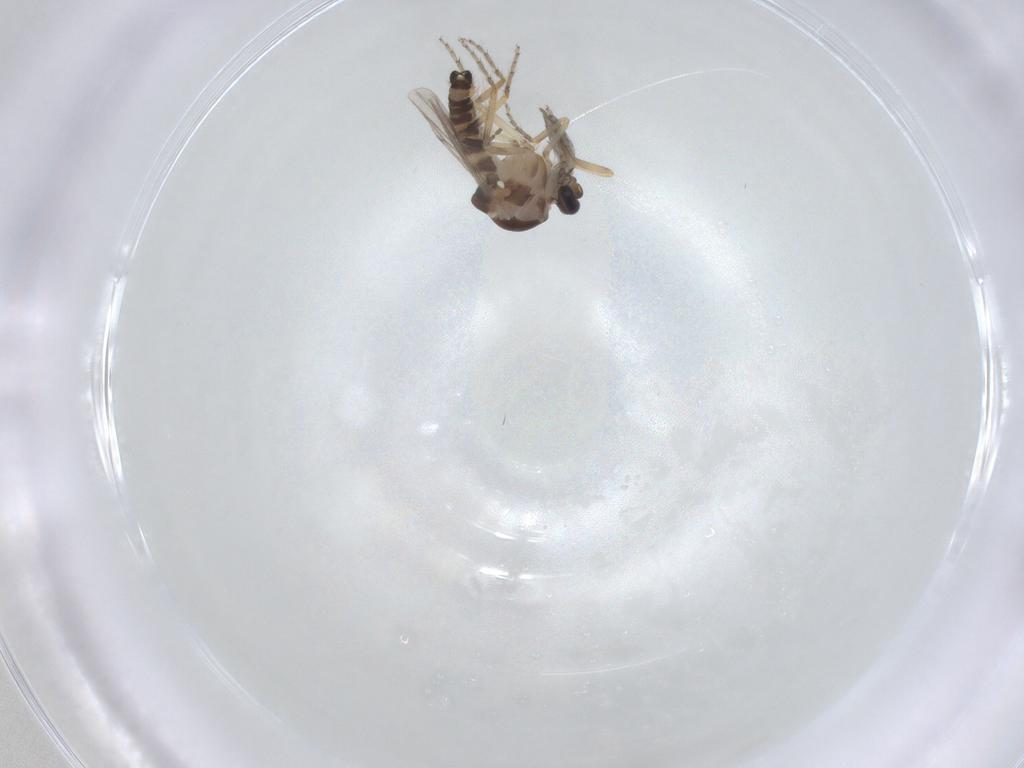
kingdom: Animalia
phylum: Arthropoda
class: Insecta
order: Diptera
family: Ceratopogonidae
